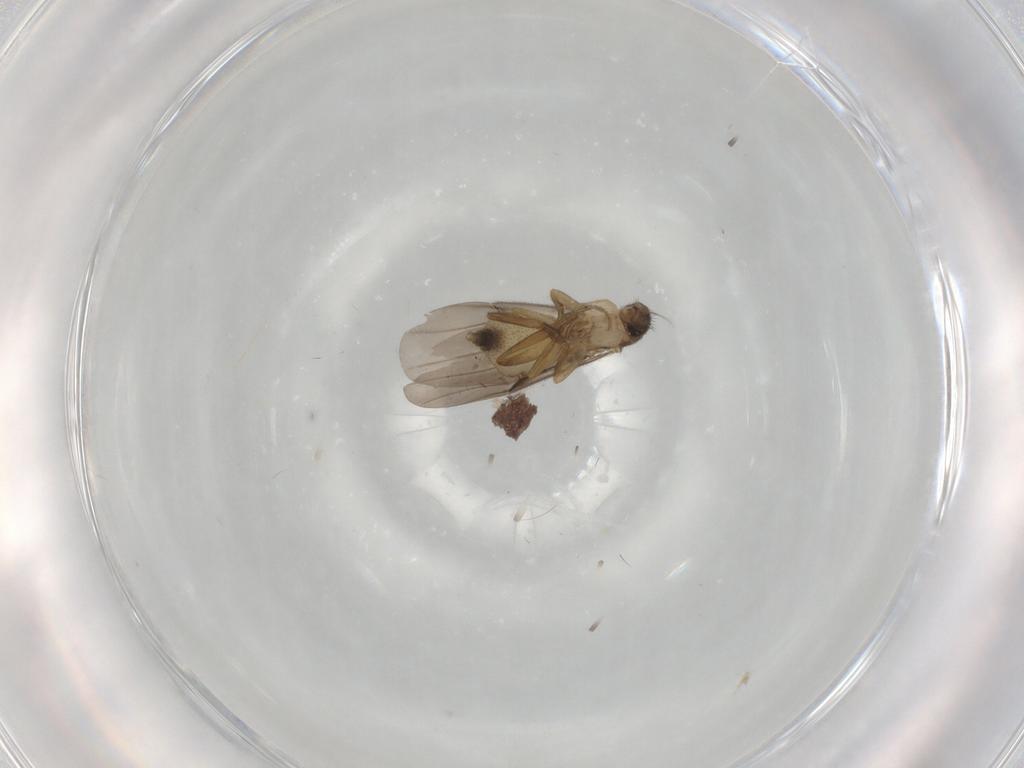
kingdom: Animalia
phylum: Arthropoda
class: Insecta
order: Diptera
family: Phoridae
